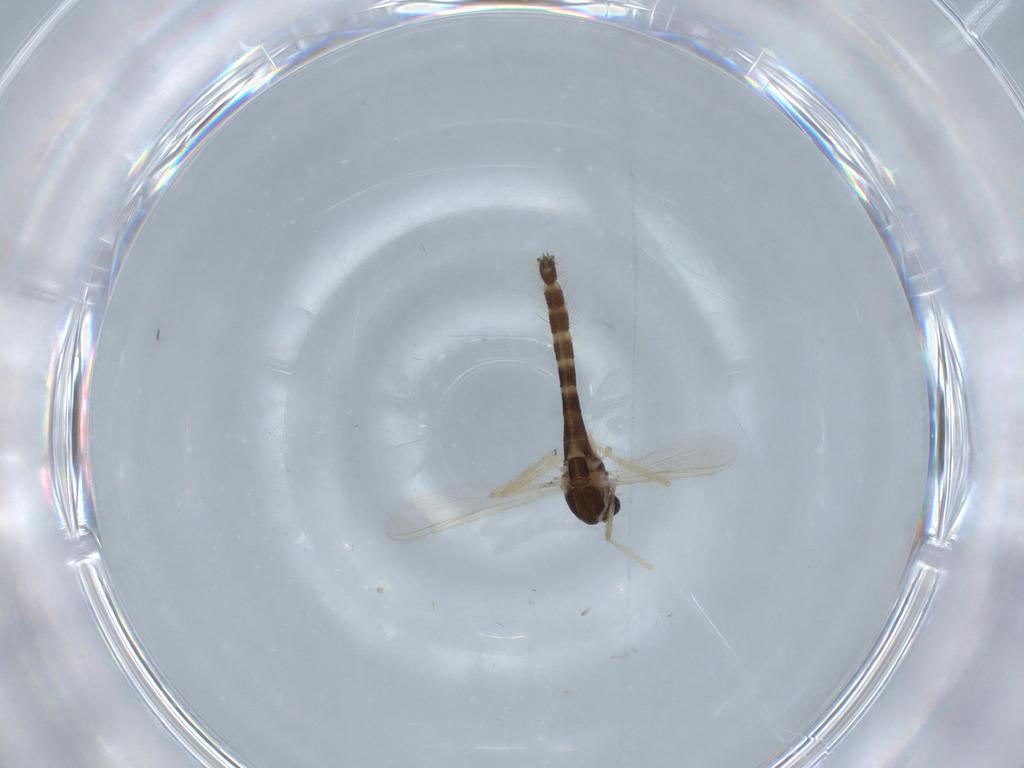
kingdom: Animalia
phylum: Arthropoda
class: Insecta
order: Diptera
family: Chironomidae
